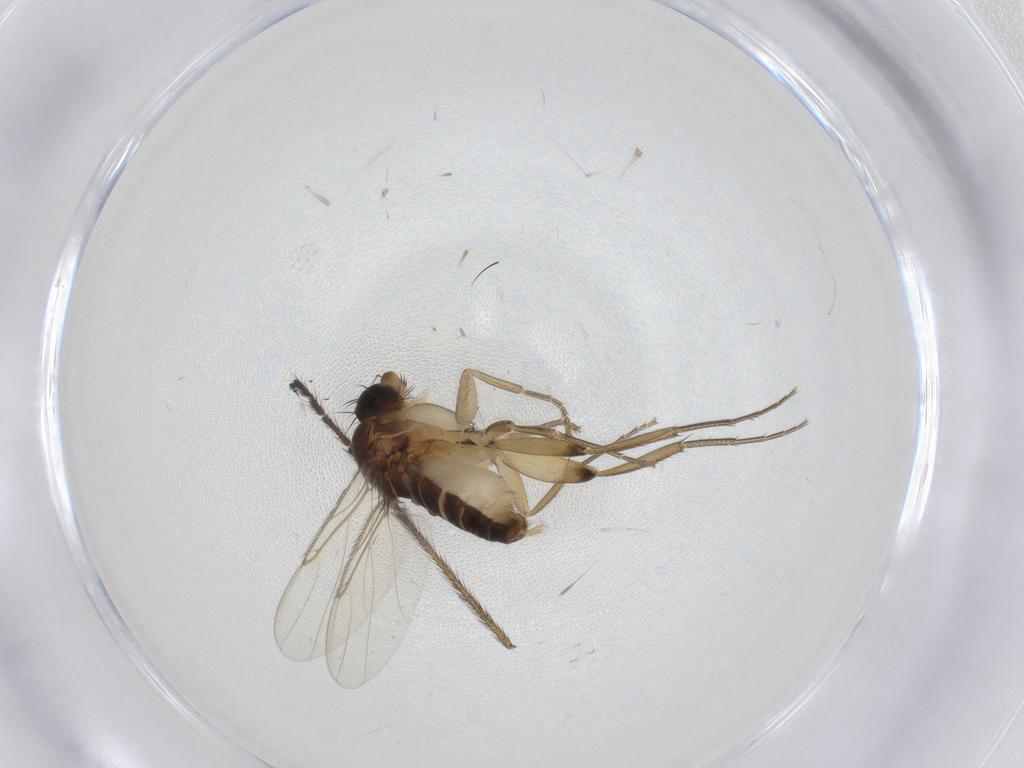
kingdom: Animalia
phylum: Arthropoda
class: Insecta
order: Diptera
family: Phoridae
